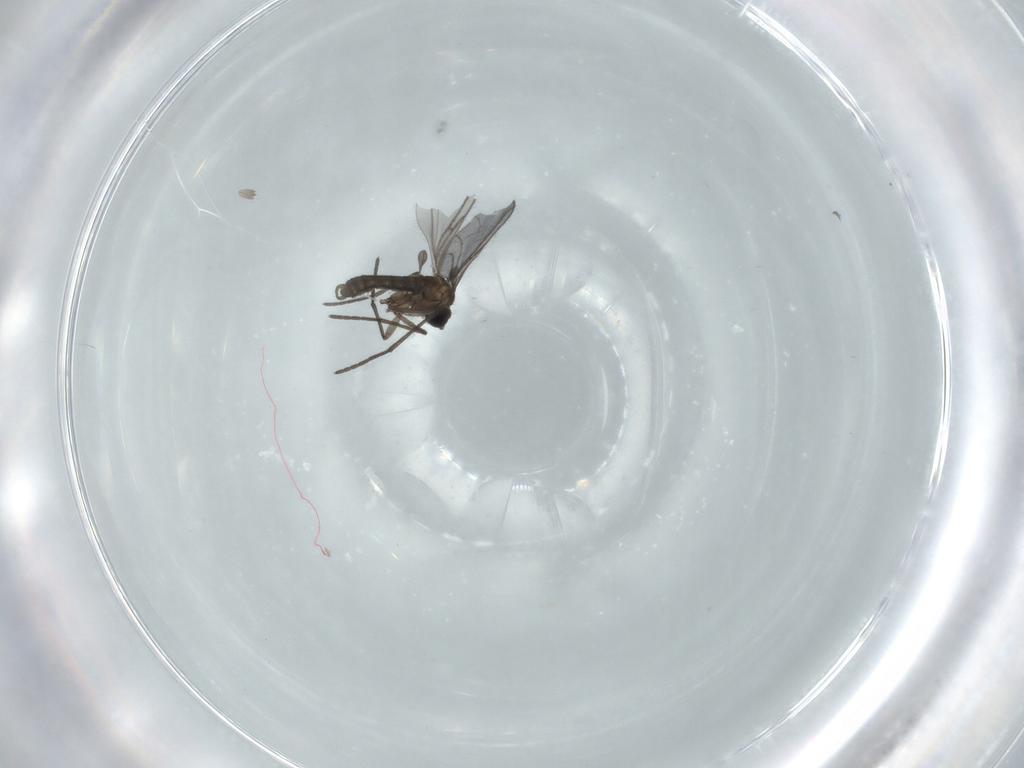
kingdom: Animalia
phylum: Arthropoda
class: Insecta
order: Diptera
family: Cecidomyiidae
